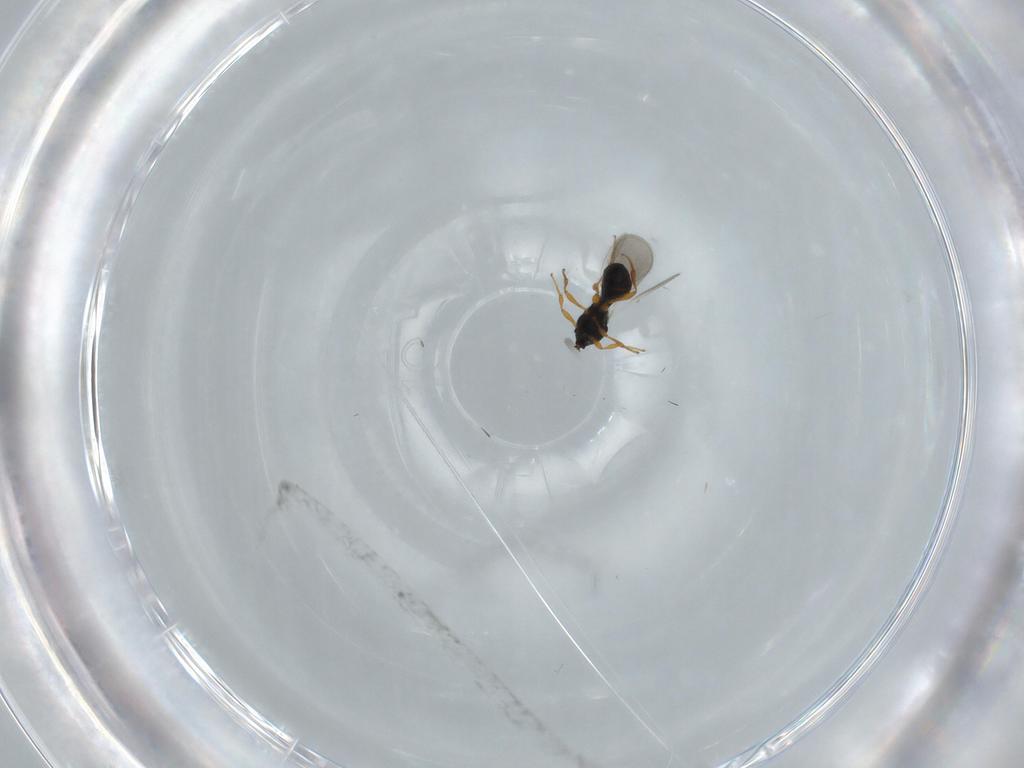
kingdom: Animalia
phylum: Arthropoda
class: Insecta
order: Hymenoptera
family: Platygastridae
